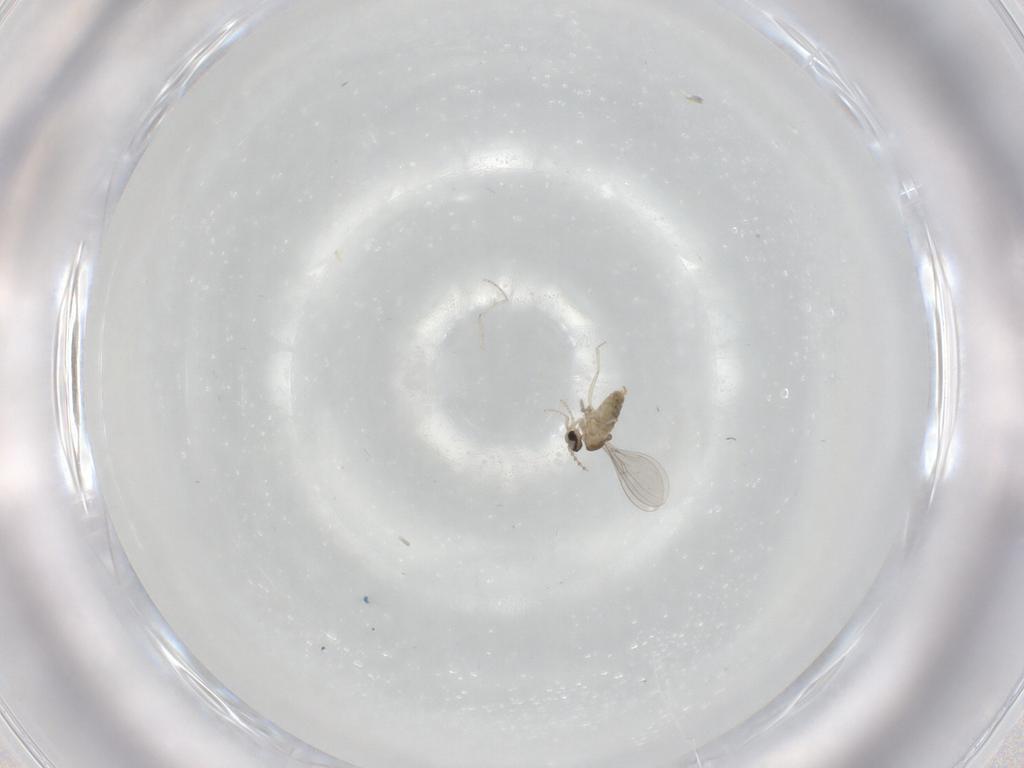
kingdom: Animalia
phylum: Arthropoda
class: Insecta
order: Diptera
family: Cecidomyiidae
